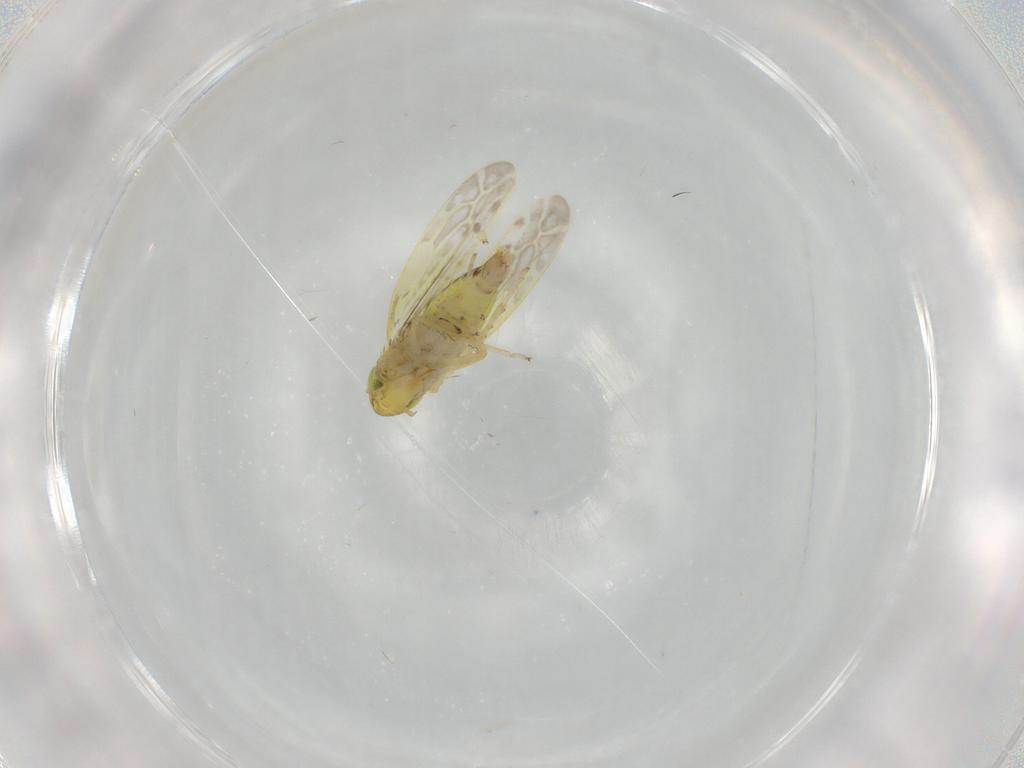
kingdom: Animalia
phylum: Arthropoda
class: Insecta
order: Hemiptera
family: Cicadellidae
